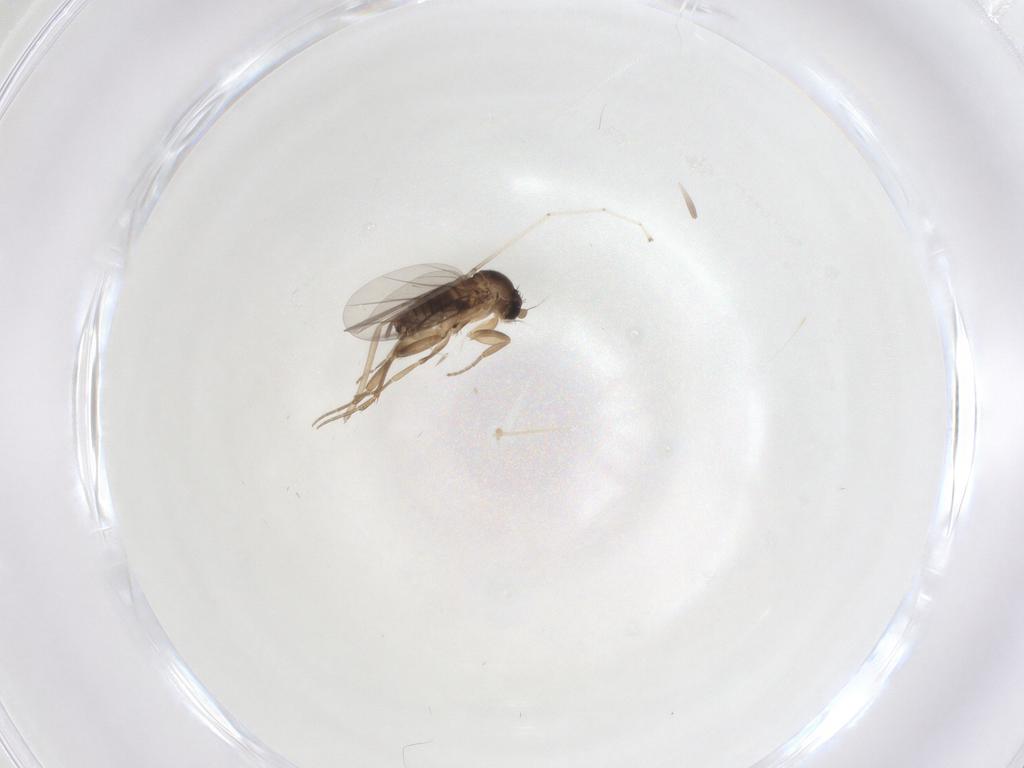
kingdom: Animalia
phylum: Arthropoda
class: Insecta
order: Diptera
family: Phoridae
